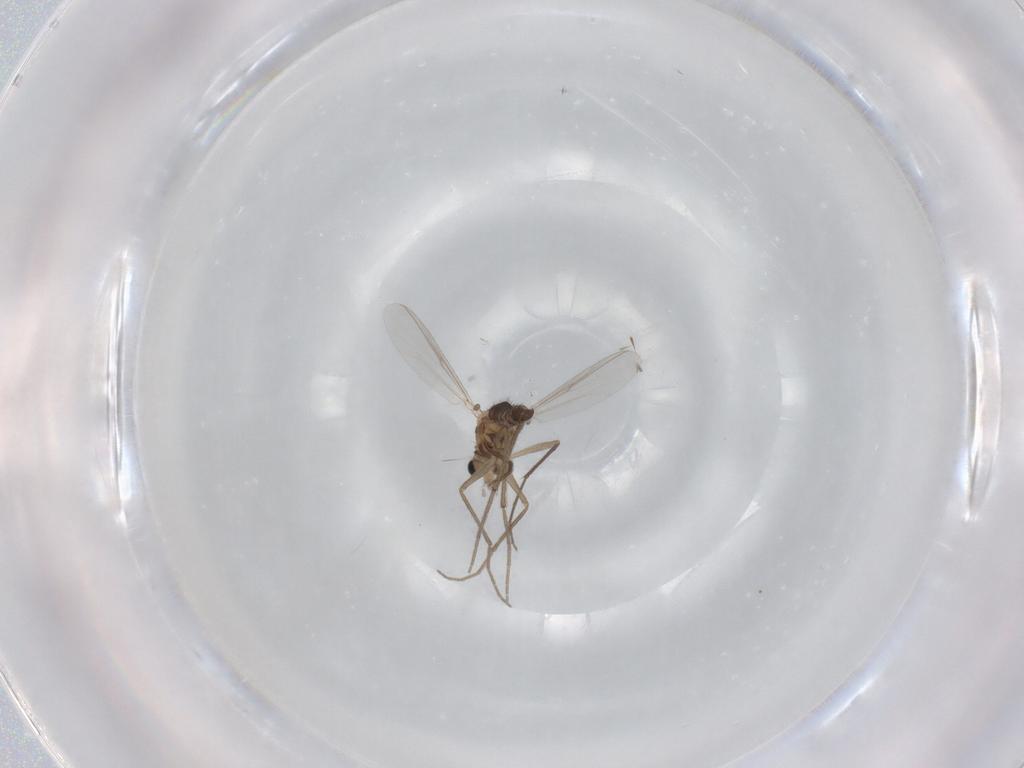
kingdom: Animalia
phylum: Arthropoda
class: Insecta
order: Diptera
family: Chironomidae
